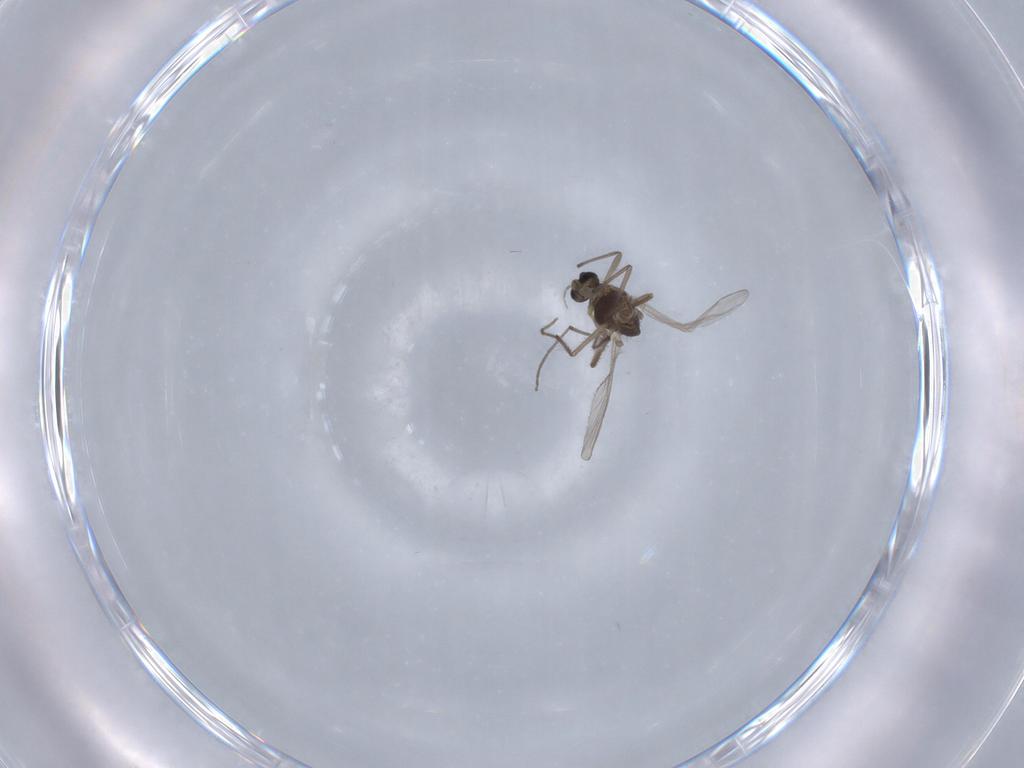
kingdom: Animalia
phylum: Arthropoda
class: Insecta
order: Diptera
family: Chironomidae
